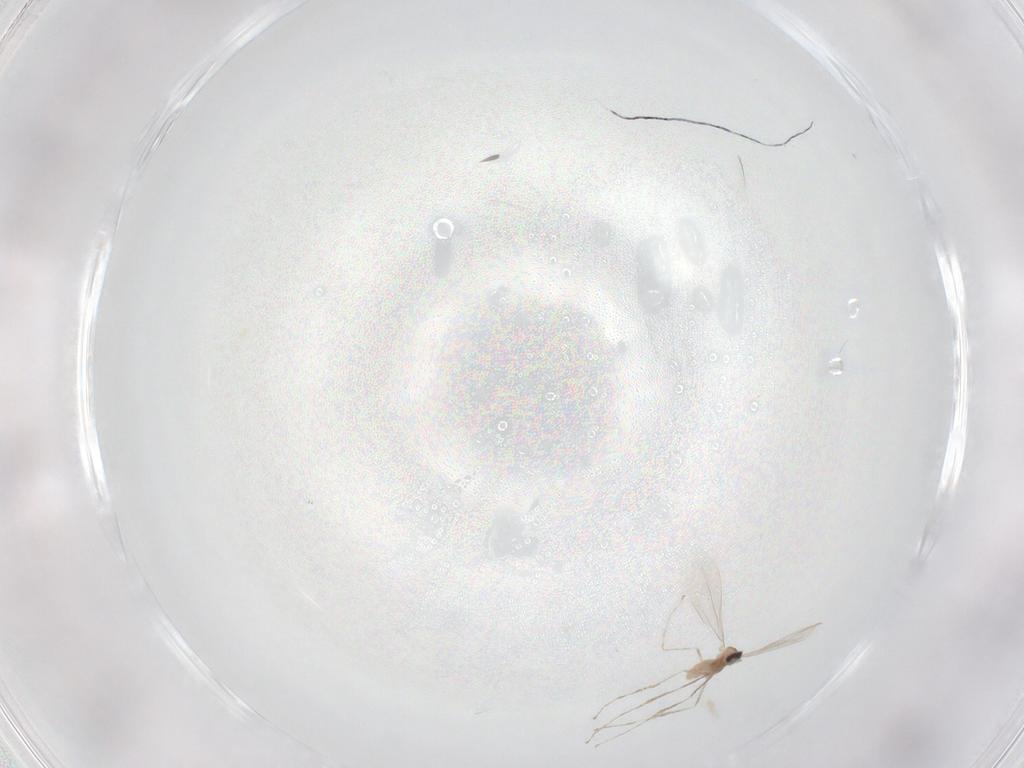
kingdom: Animalia
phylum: Arthropoda
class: Insecta
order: Diptera
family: Cecidomyiidae
